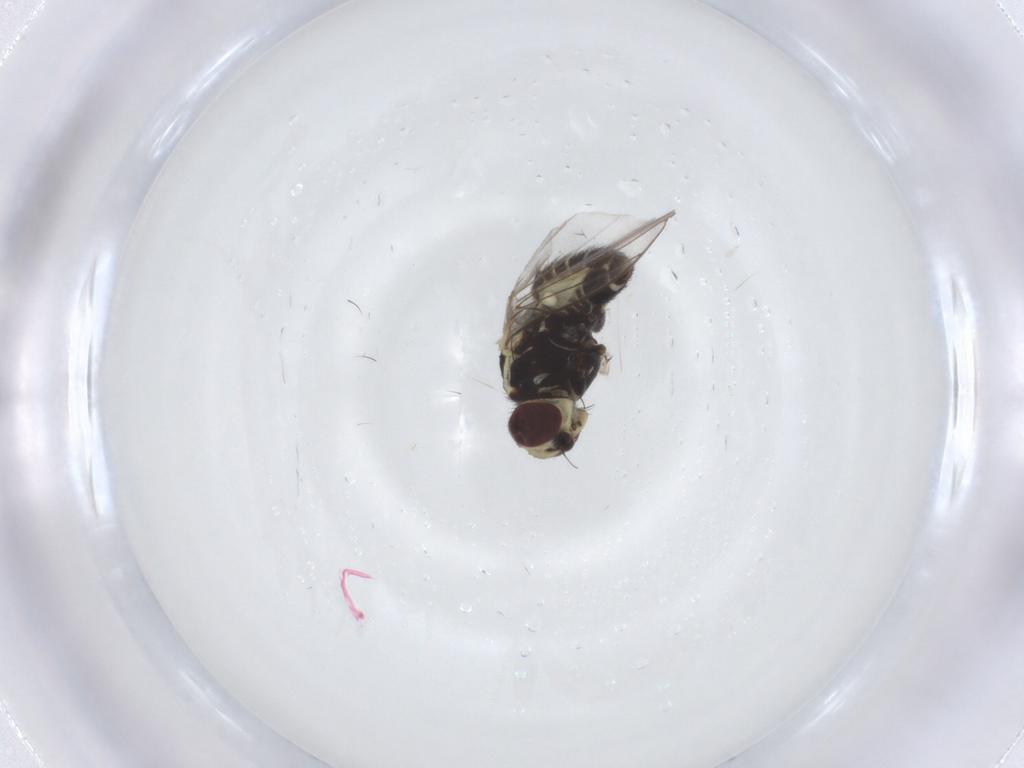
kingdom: Animalia
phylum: Arthropoda
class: Insecta
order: Diptera
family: Agromyzidae
